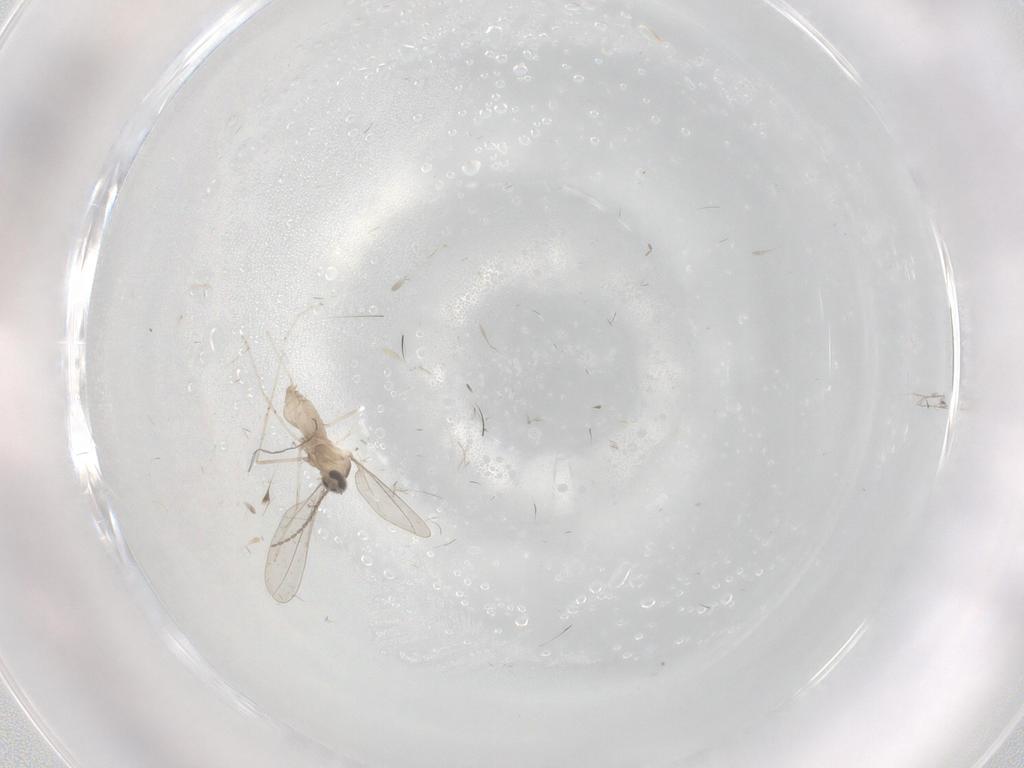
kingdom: Animalia
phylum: Arthropoda
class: Insecta
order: Diptera
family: Cecidomyiidae
